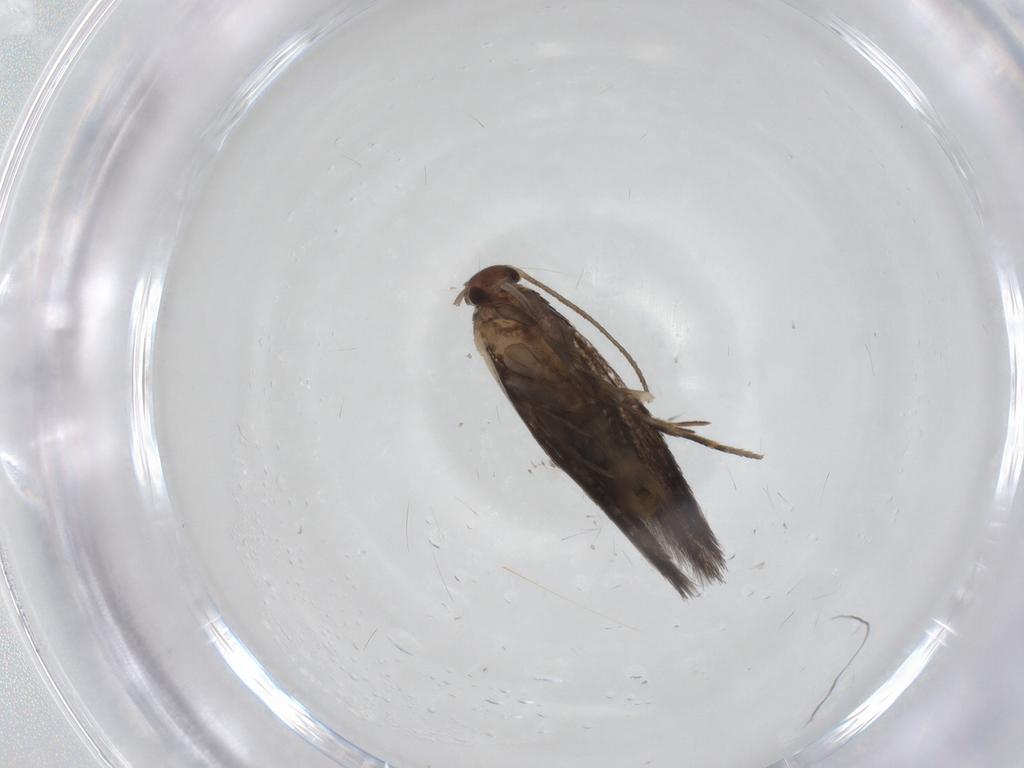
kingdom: Animalia
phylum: Arthropoda
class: Insecta
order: Lepidoptera
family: Elachistidae
